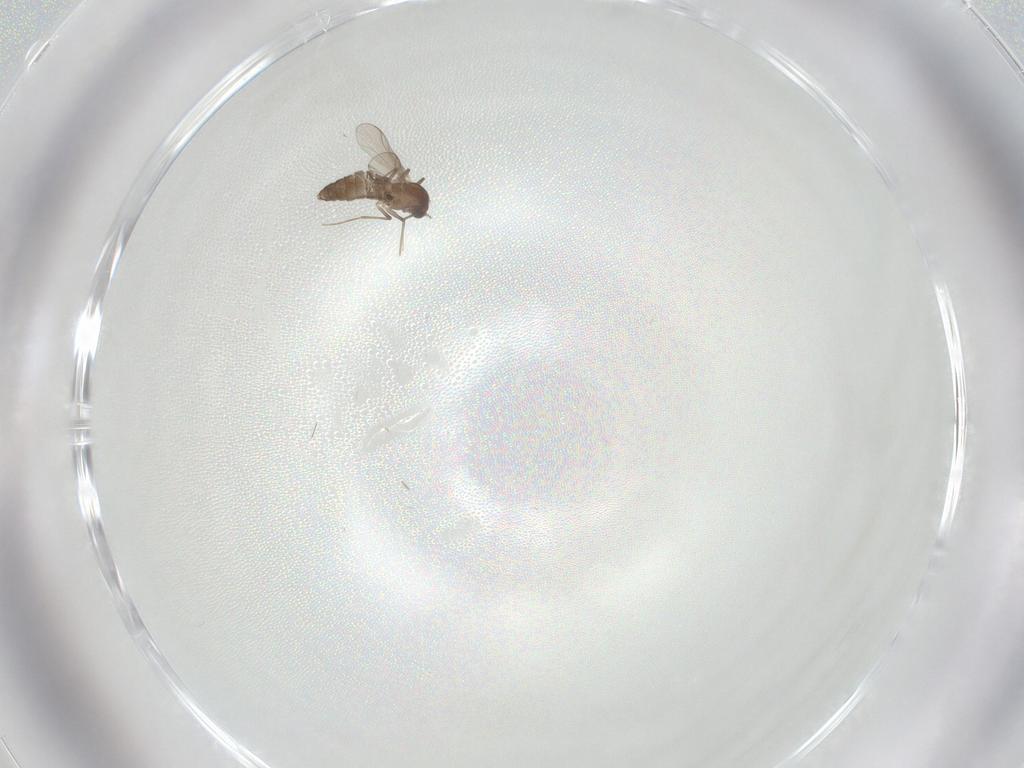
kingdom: Animalia
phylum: Arthropoda
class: Insecta
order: Diptera
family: Chironomidae
